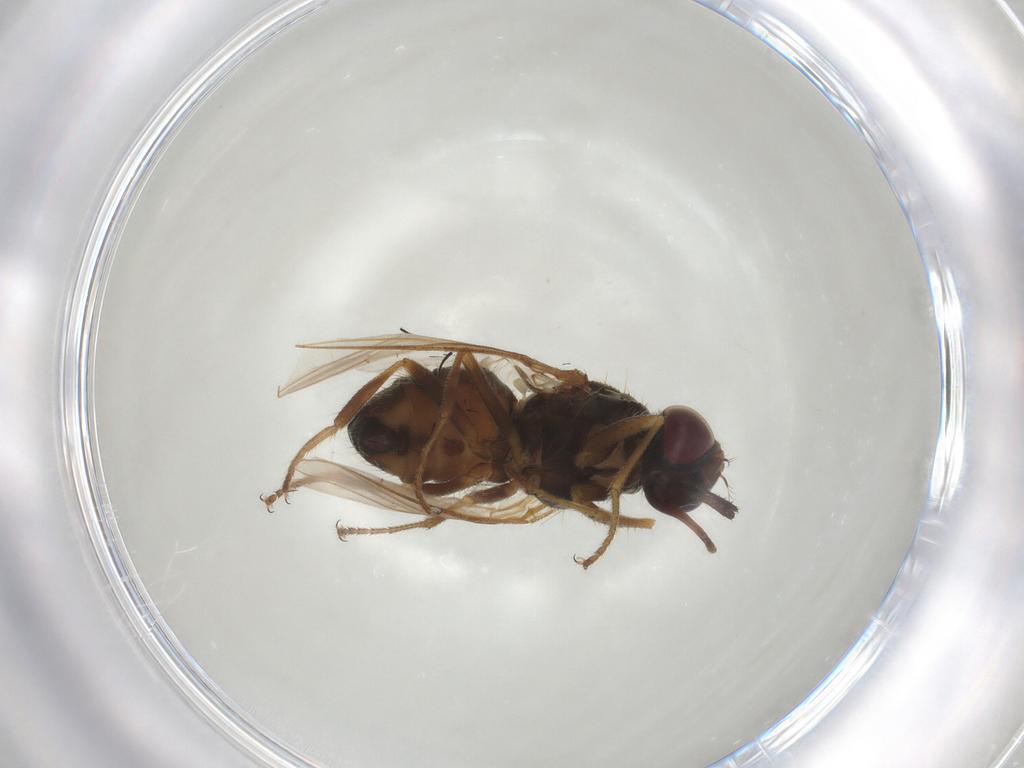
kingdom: Animalia
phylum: Arthropoda
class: Insecta
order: Diptera
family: Cecidomyiidae
